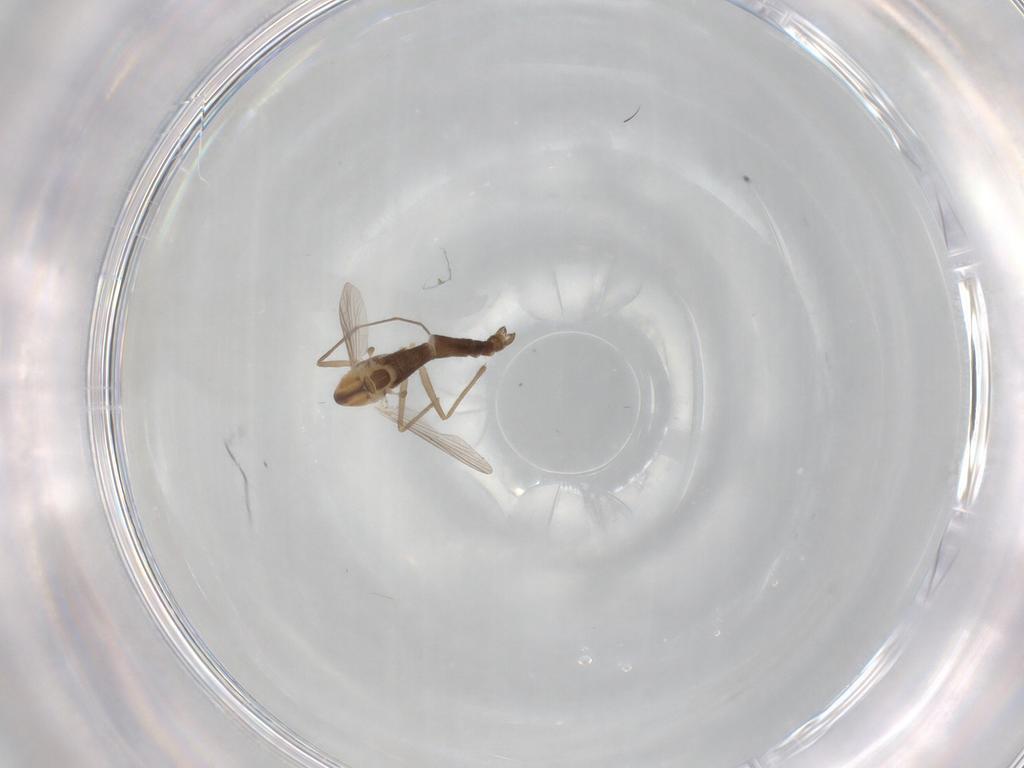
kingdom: Animalia
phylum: Arthropoda
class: Insecta
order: Diptera
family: Chironomidae
